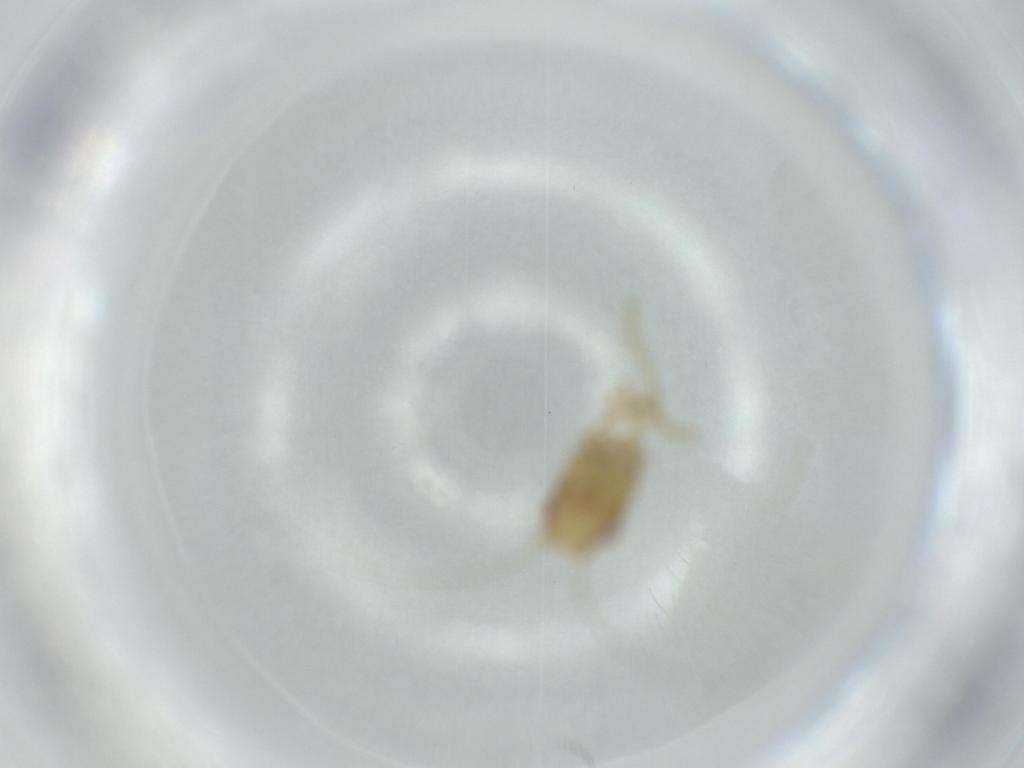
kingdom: Animalia
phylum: Arthropoda
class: Insecta
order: Hemiptera
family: Cicadellidae
